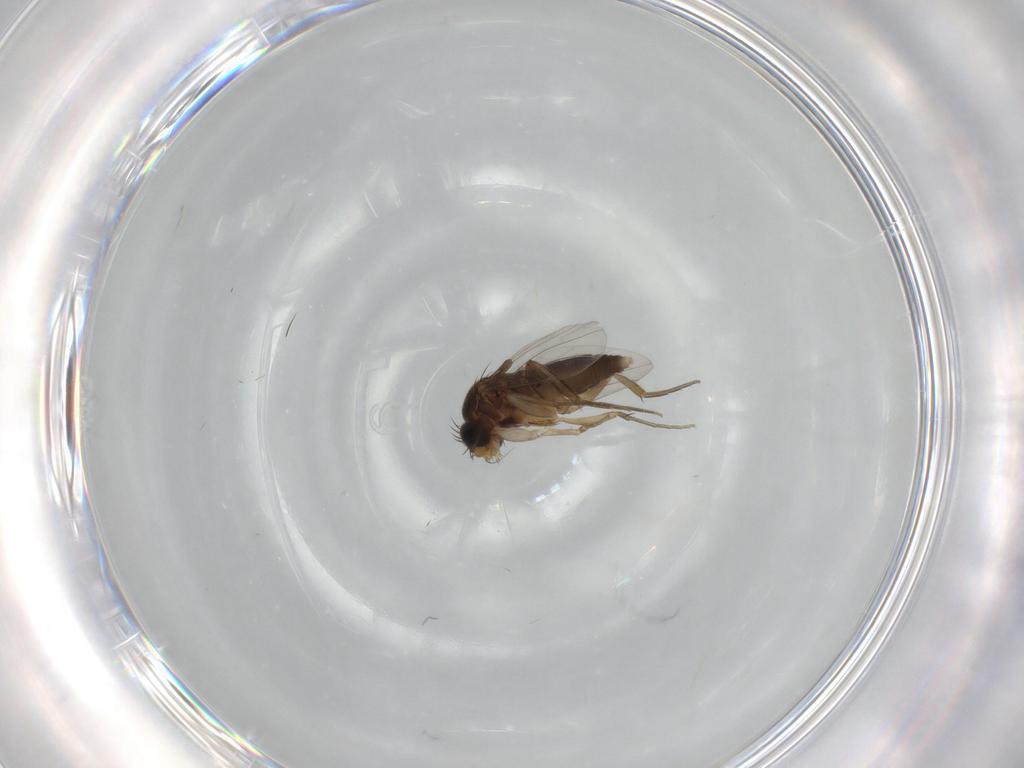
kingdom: Animalia
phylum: Arthropoda
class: Insecta
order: Diptera
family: Phoridae
